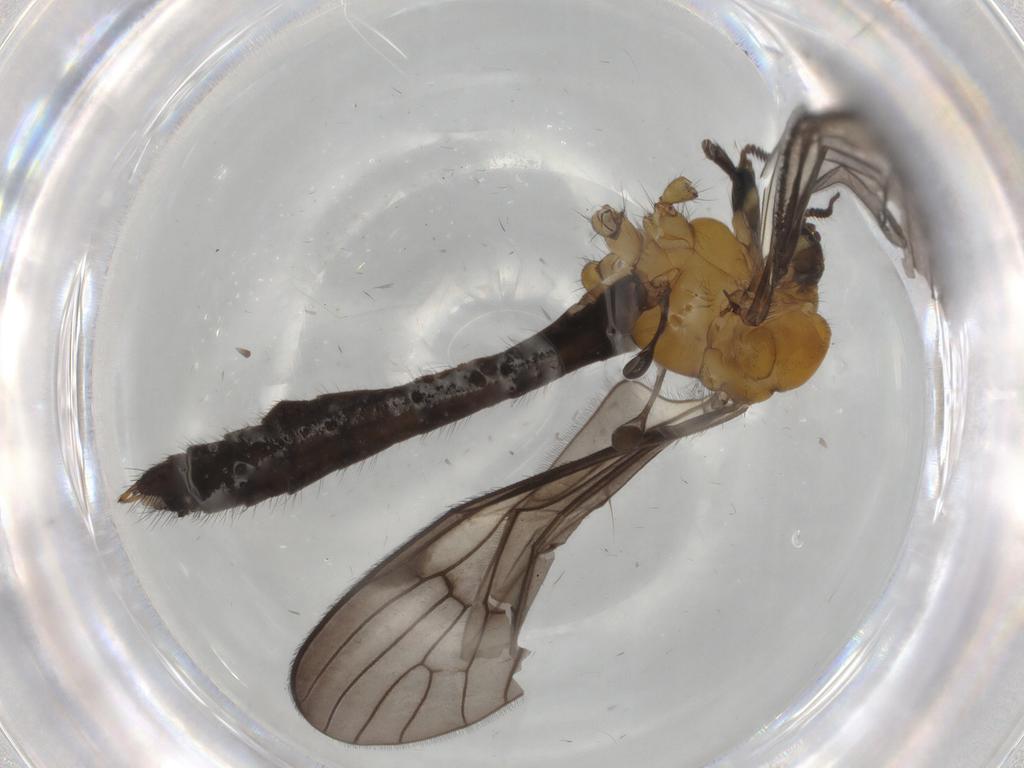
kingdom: Animalia
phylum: Arthropoda
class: Insecta
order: Diptera
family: Limoniidae
